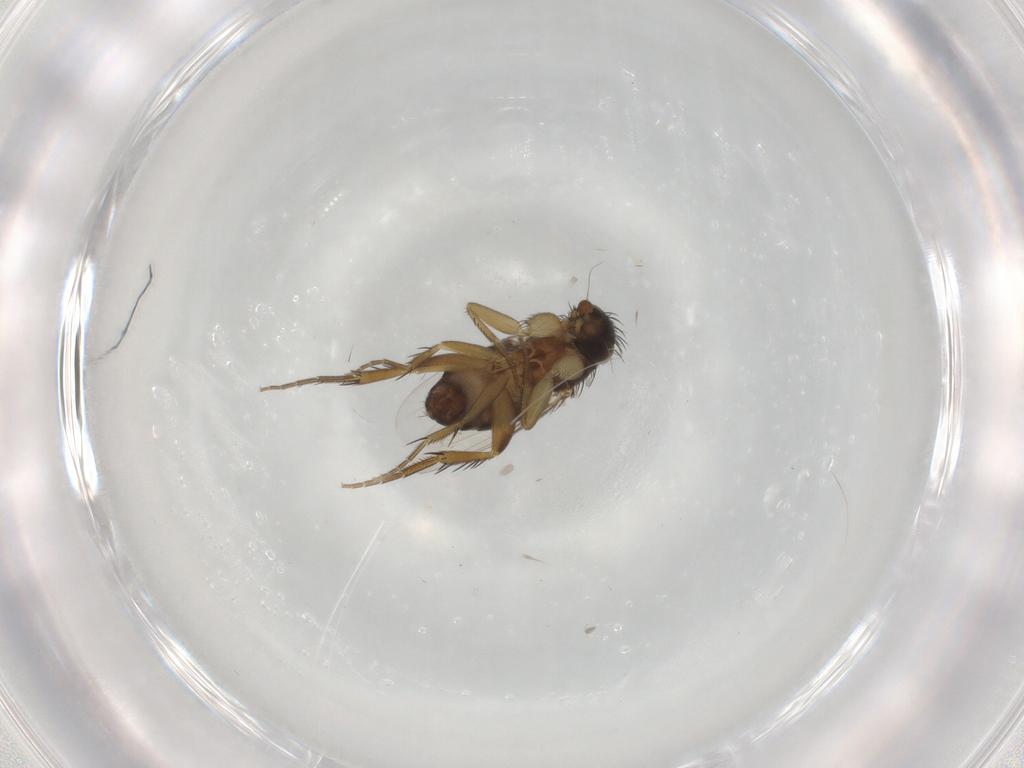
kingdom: Animalia
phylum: Arthropoda
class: Insecta
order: Diptera
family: Phoridae
